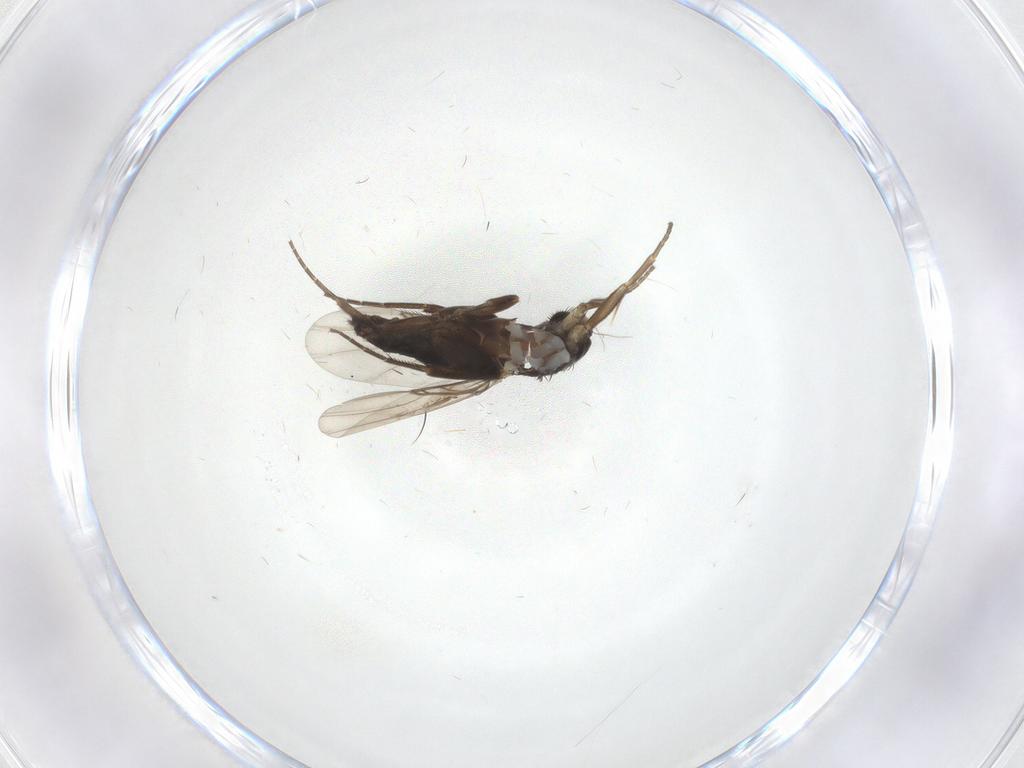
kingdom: Animalia
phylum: Arthropoda
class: Insecta
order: Diptera
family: Phoridae
